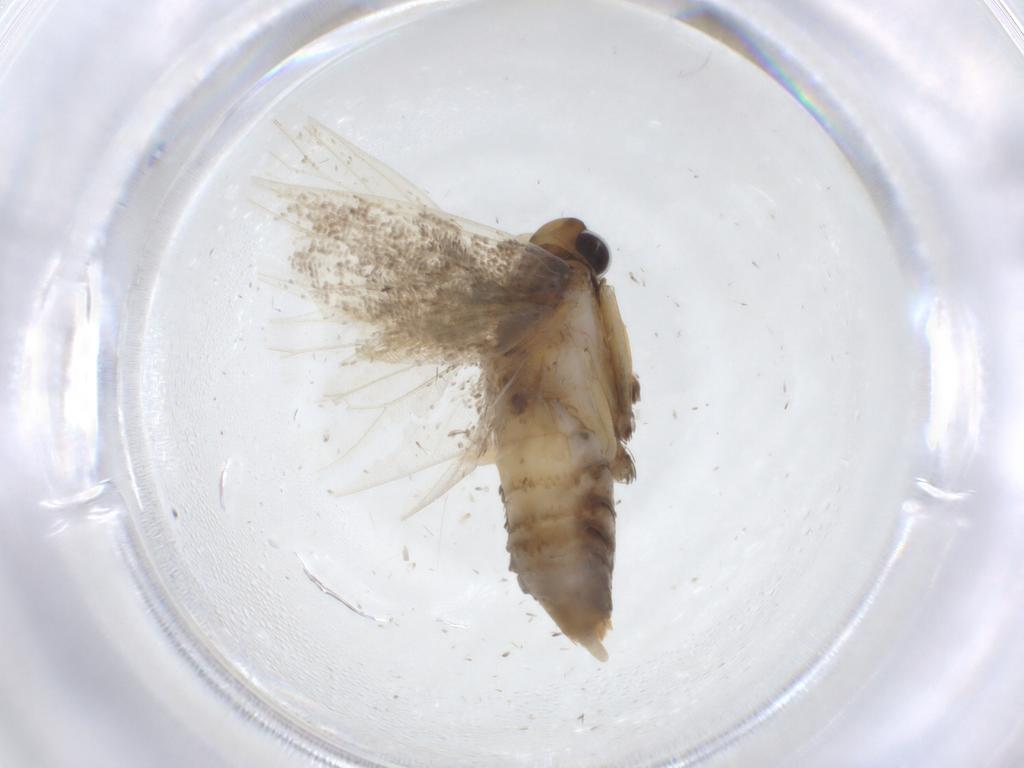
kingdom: Animalia
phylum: Arthropoda
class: Insecta
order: Lepidoptera
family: Lecithoceridae
